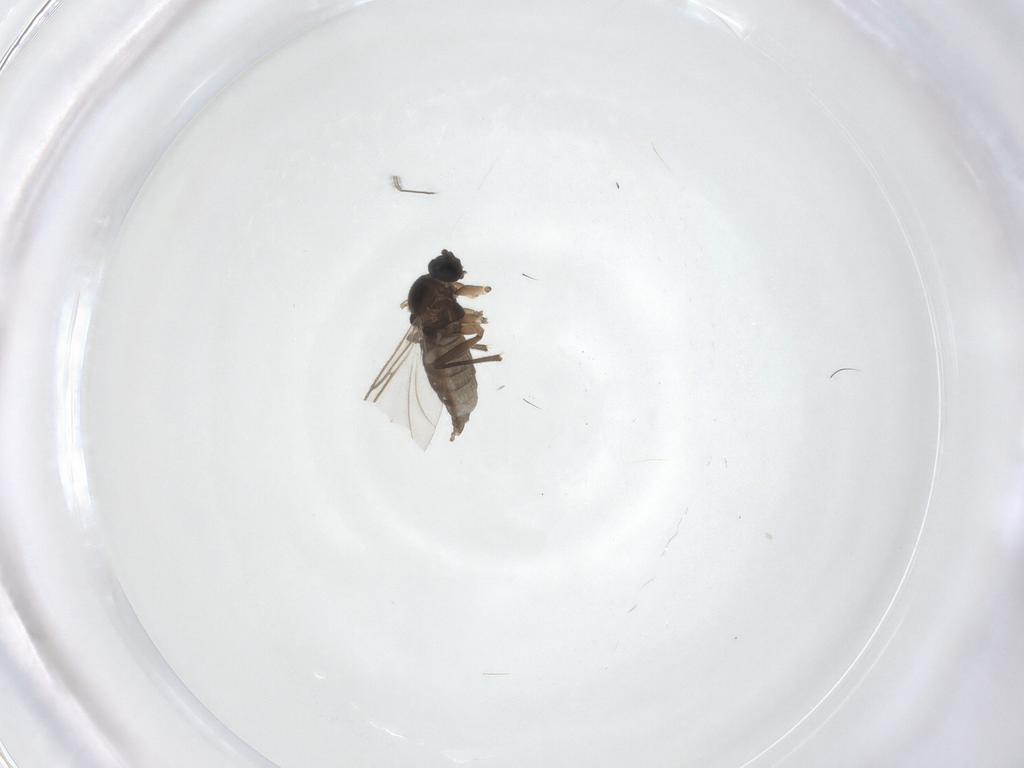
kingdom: Animalia
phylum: Arthropoda
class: Insecta
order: Diptera
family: Sciaridae
